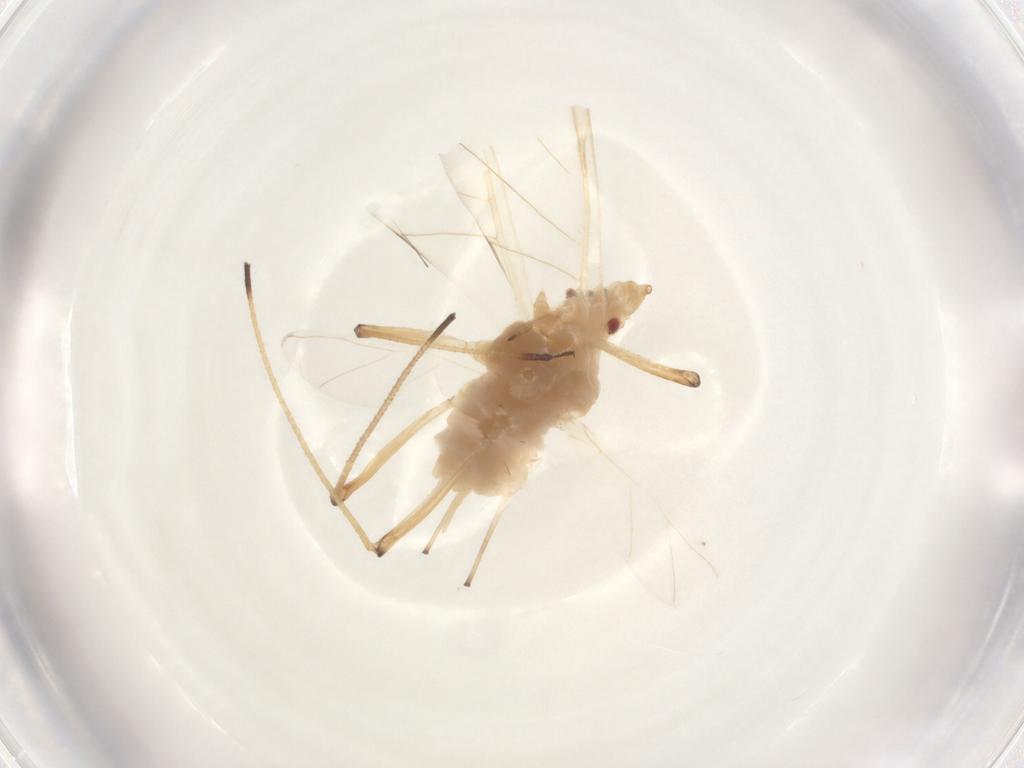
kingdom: Animalia
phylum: Arthropoda
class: Insecta
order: Hemiptera
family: Aphididae
